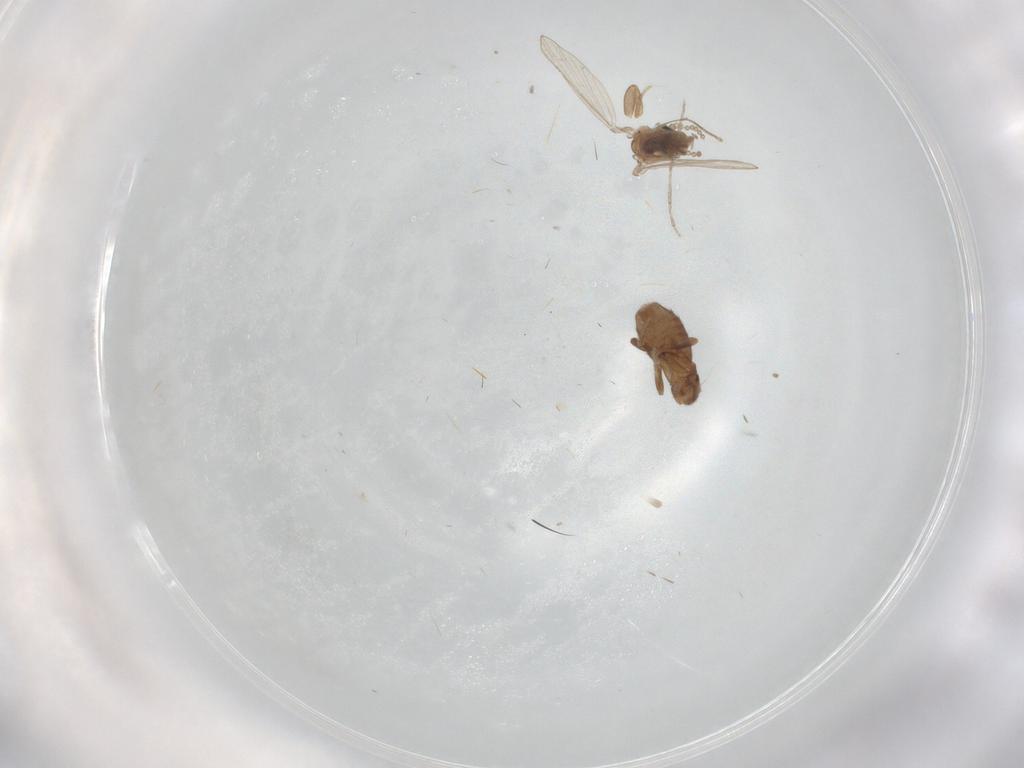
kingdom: Animalia
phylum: Arthropoda
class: Insecta
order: Diptera
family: Psychodidae
